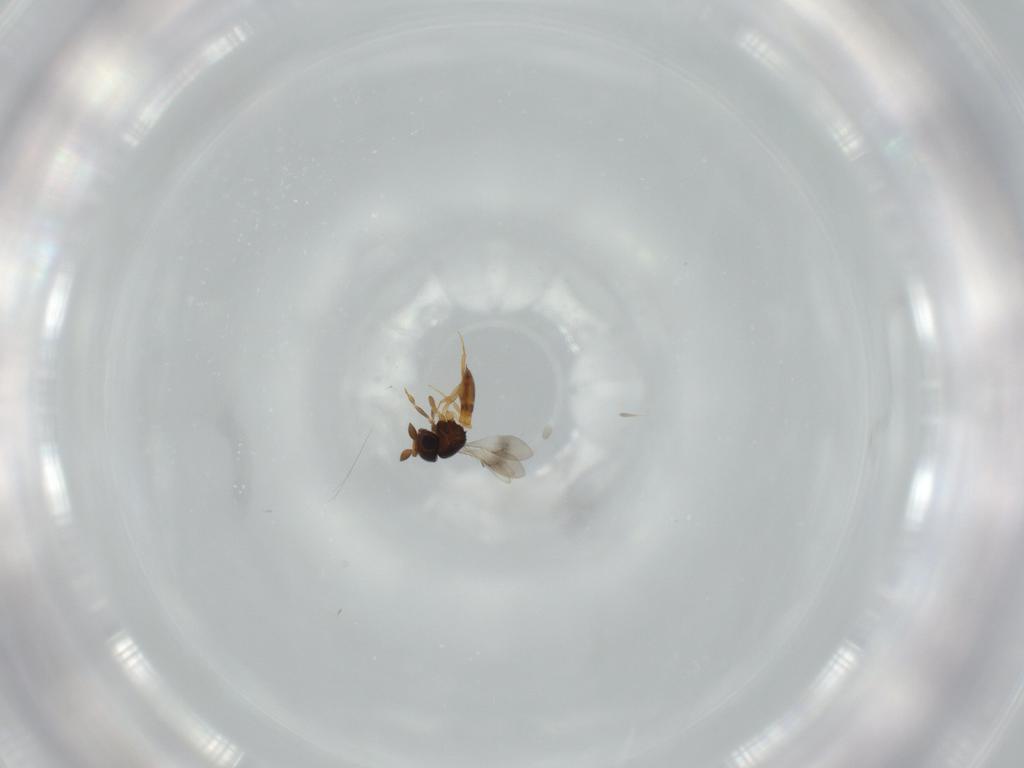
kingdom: Animalia
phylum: Arthropoda
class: Insecta
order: Hymenoptera
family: Scelionidae
